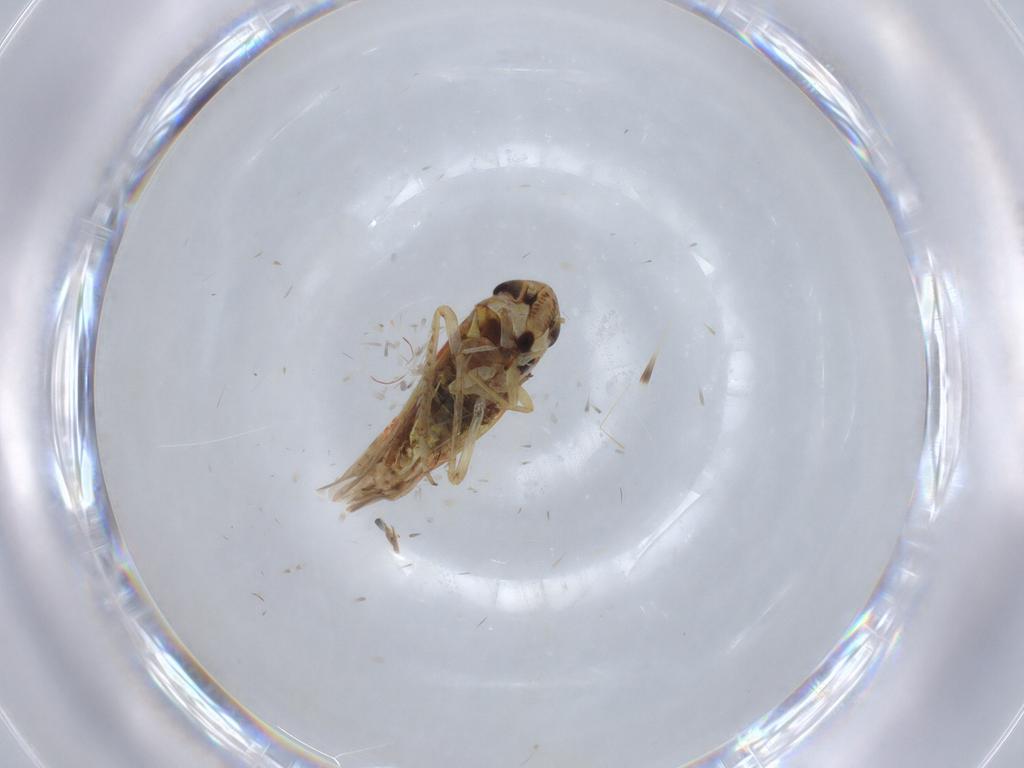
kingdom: Animalia
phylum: Arthropoda
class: Insecta
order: Hemiptera
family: Cicadellidae
